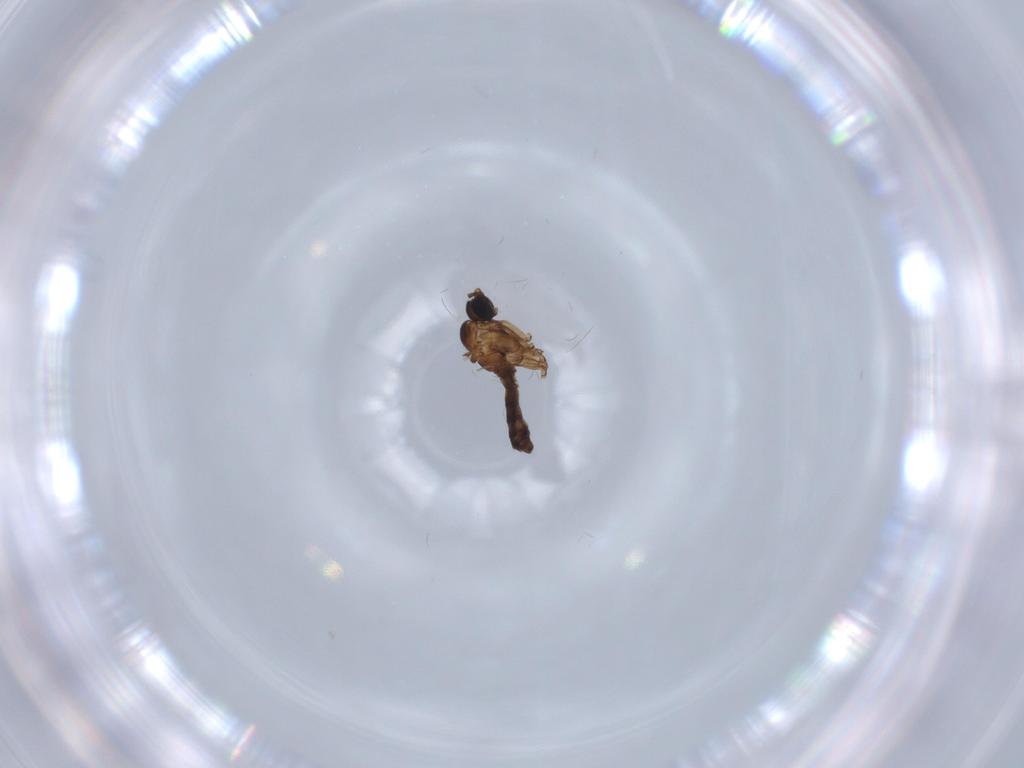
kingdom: Animalia
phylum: Arthropoda
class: Insecta
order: Diptera
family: Sciaridae
